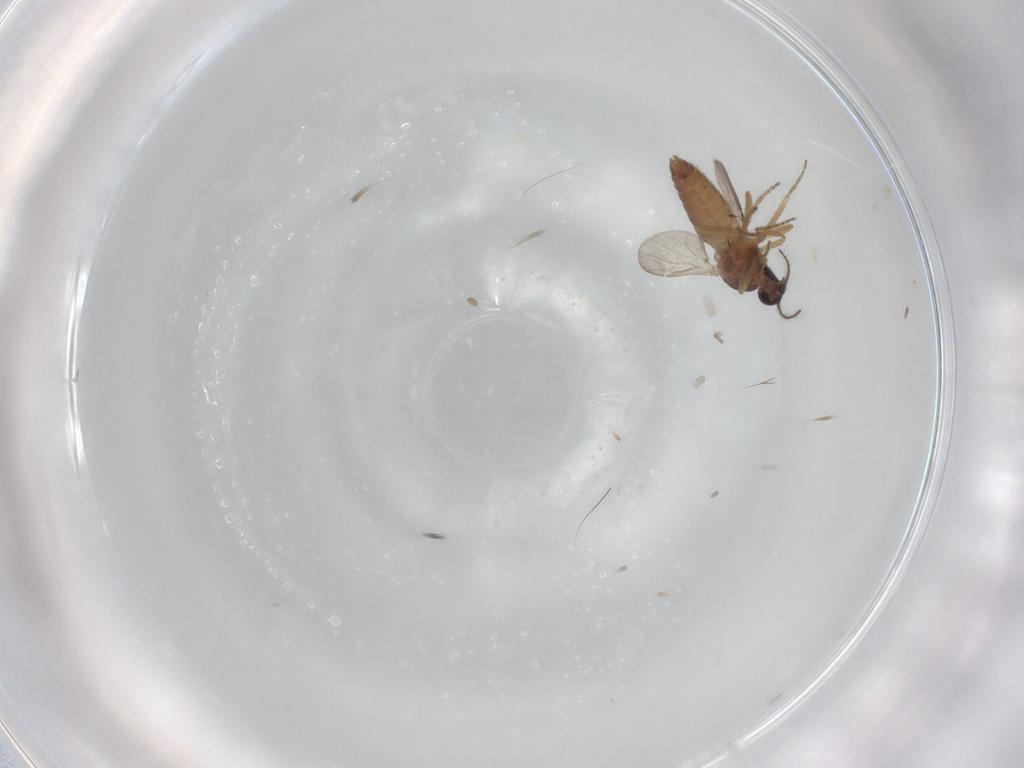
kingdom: Animalia
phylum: Arthropoda
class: Insecta
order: Diptera
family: Ceratopogonidae
